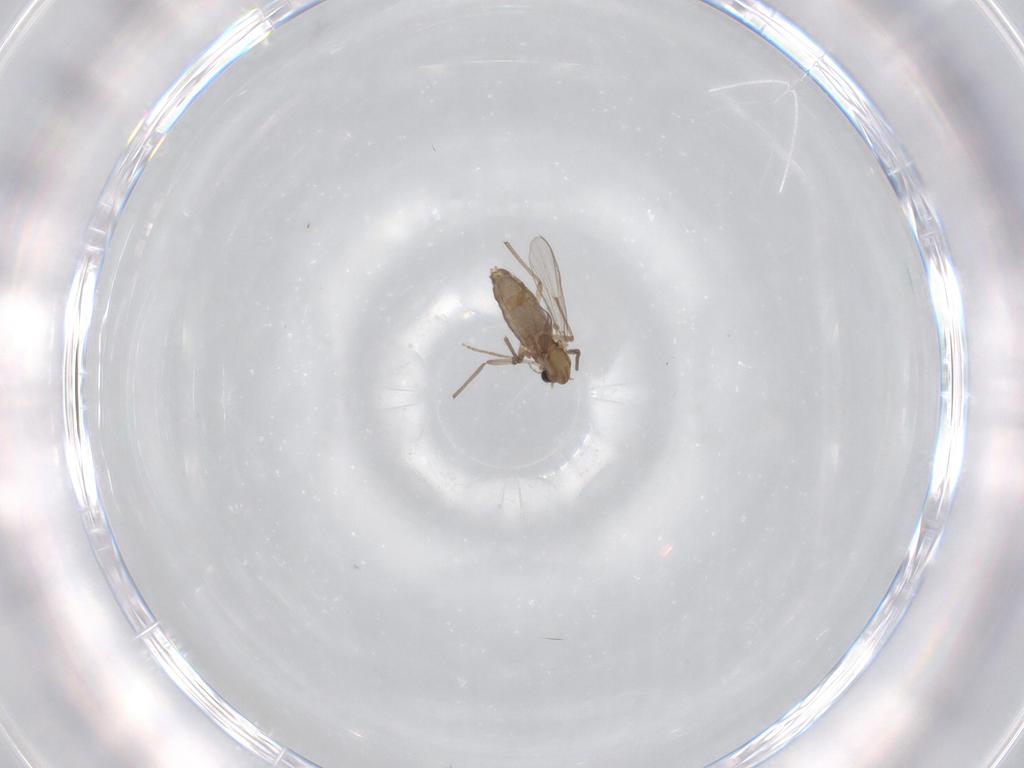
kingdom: Animalia
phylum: Arthropoda
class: Insecta
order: Diptera
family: Chironomidae
